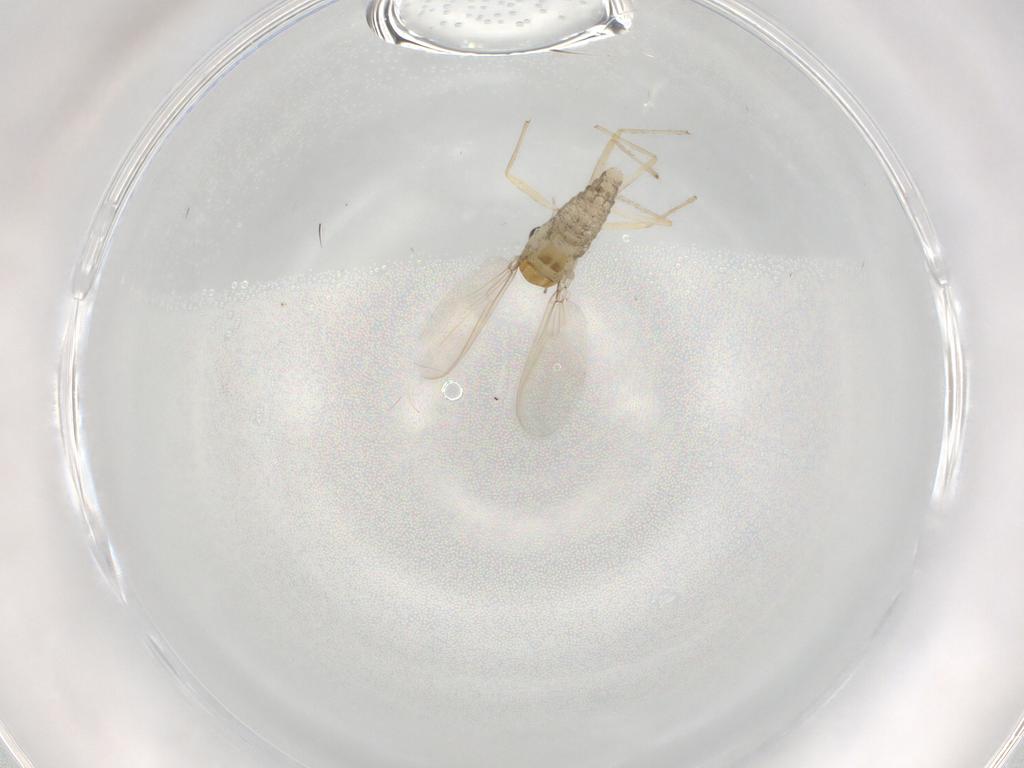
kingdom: Animalia
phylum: Arthropoda
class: Insecta
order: Diptera
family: Chironomidae
